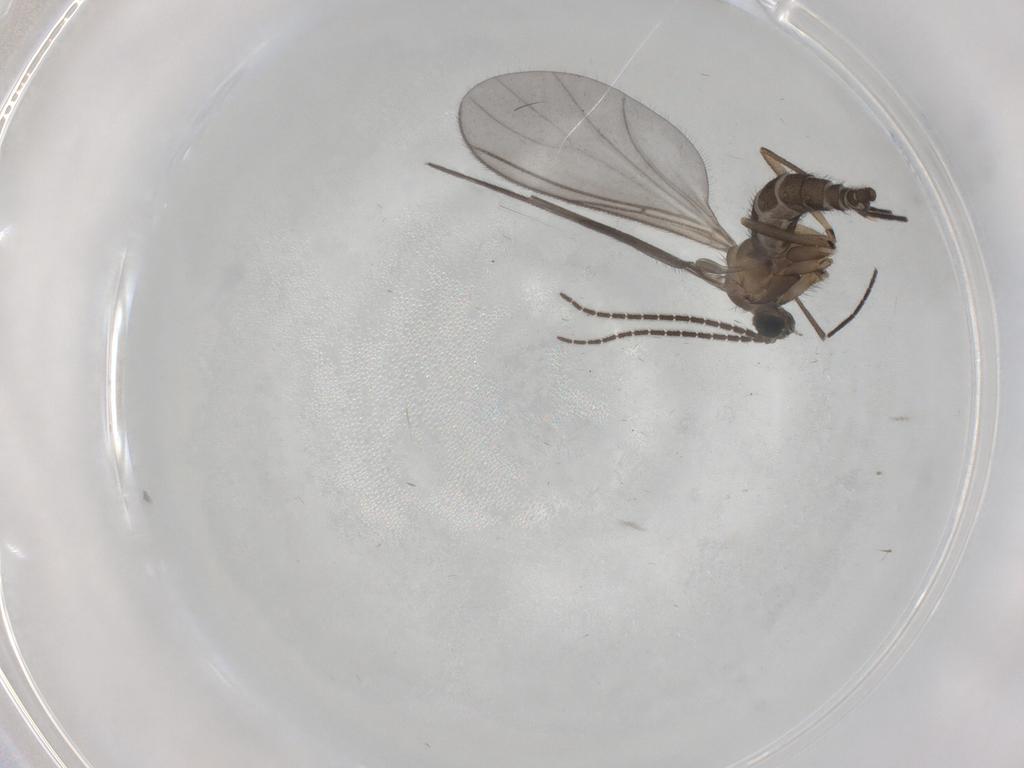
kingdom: Animalia
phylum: Arthropoda
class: Insecta
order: Diptera
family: Sciaridae
